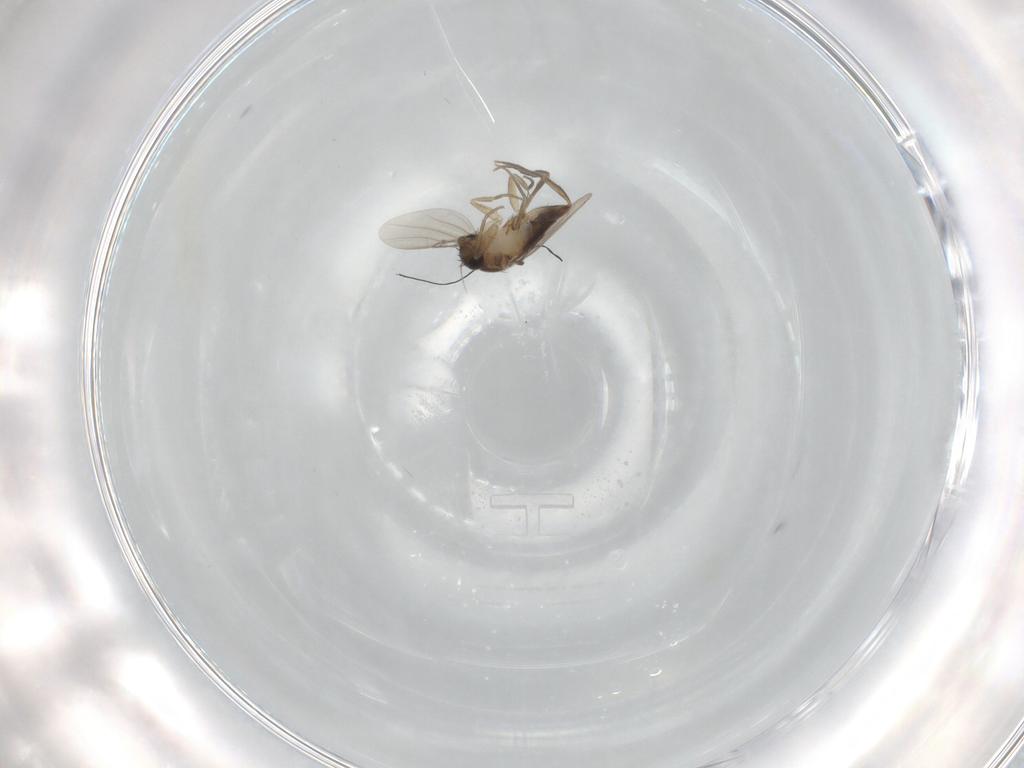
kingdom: Animalia
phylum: Arthropoda
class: Insecta
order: Diptera
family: Phoridae
